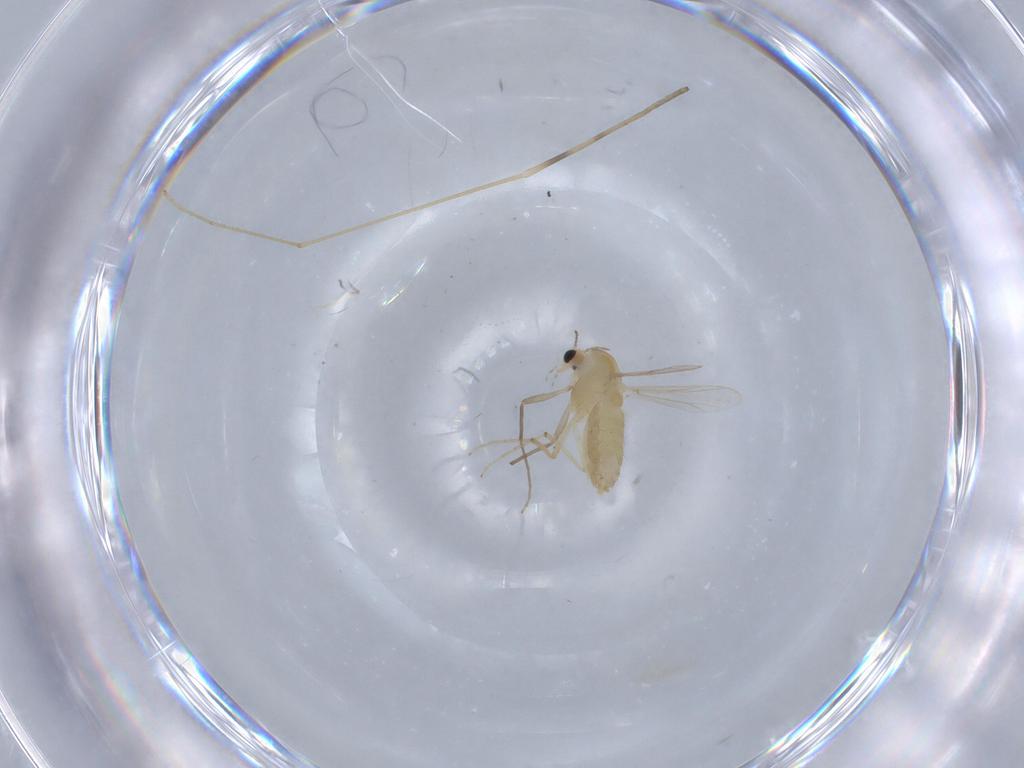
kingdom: Animalia
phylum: Arthropoda
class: Insecta
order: Diptera
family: Chironomidae
